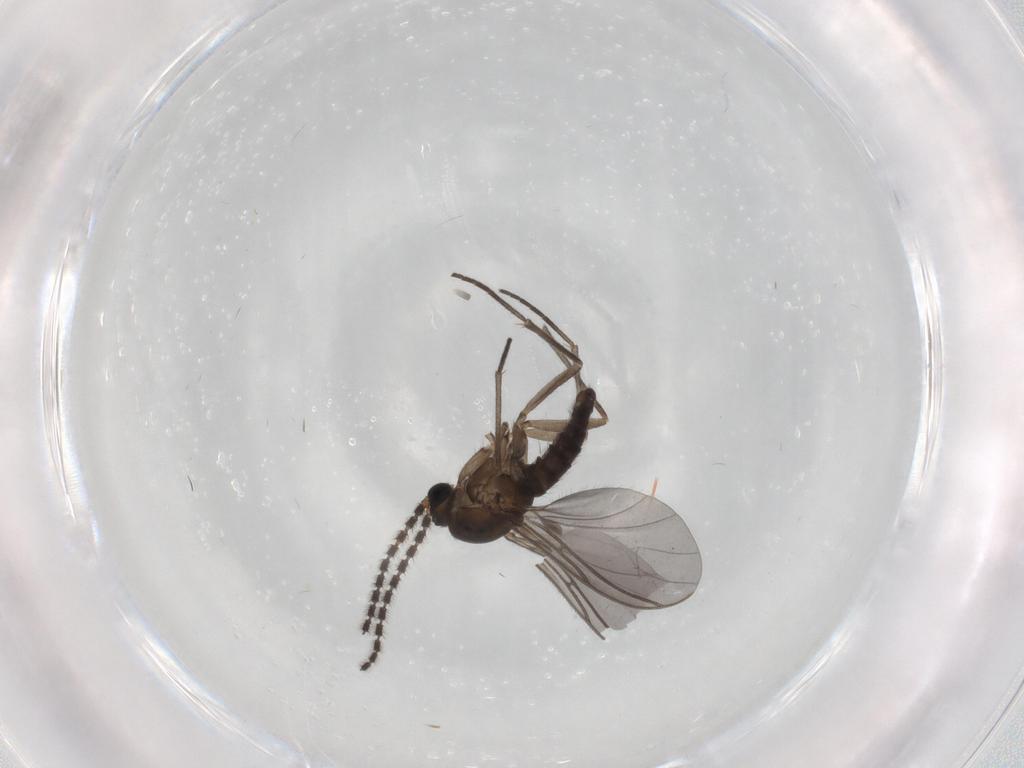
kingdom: Animalia
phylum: Arthropoda
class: Insecta
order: Diptera
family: Sciaridae
